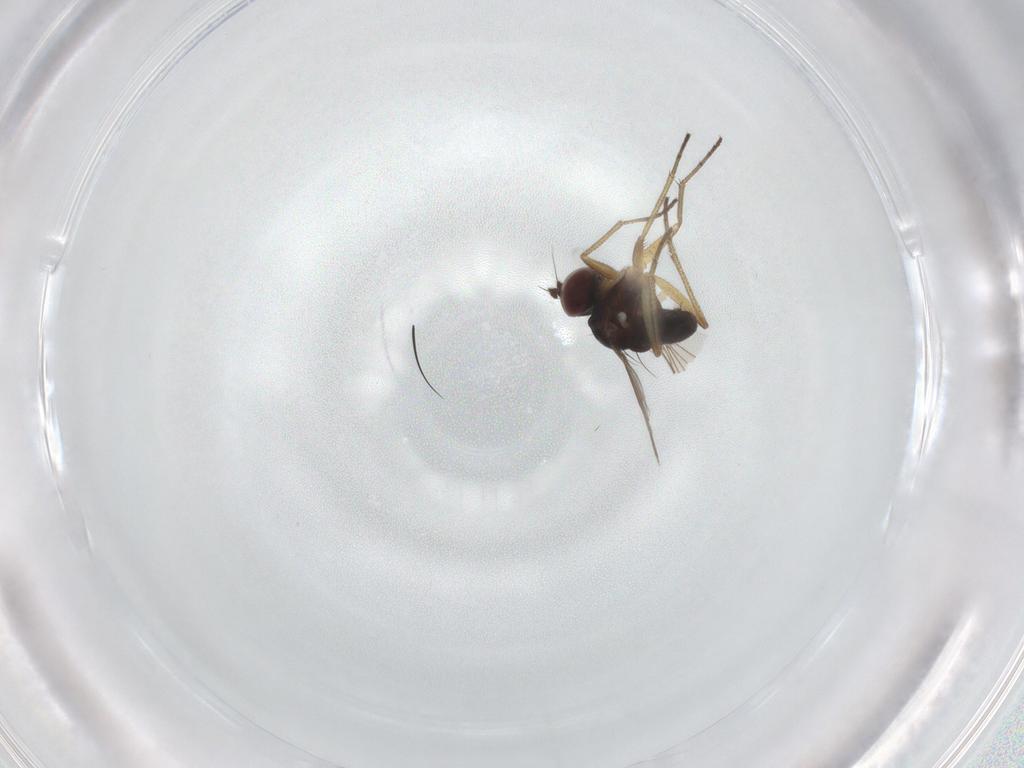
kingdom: Animalia
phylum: Arthropoda
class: Insecta
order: Diptera
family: Dolichopodidae
